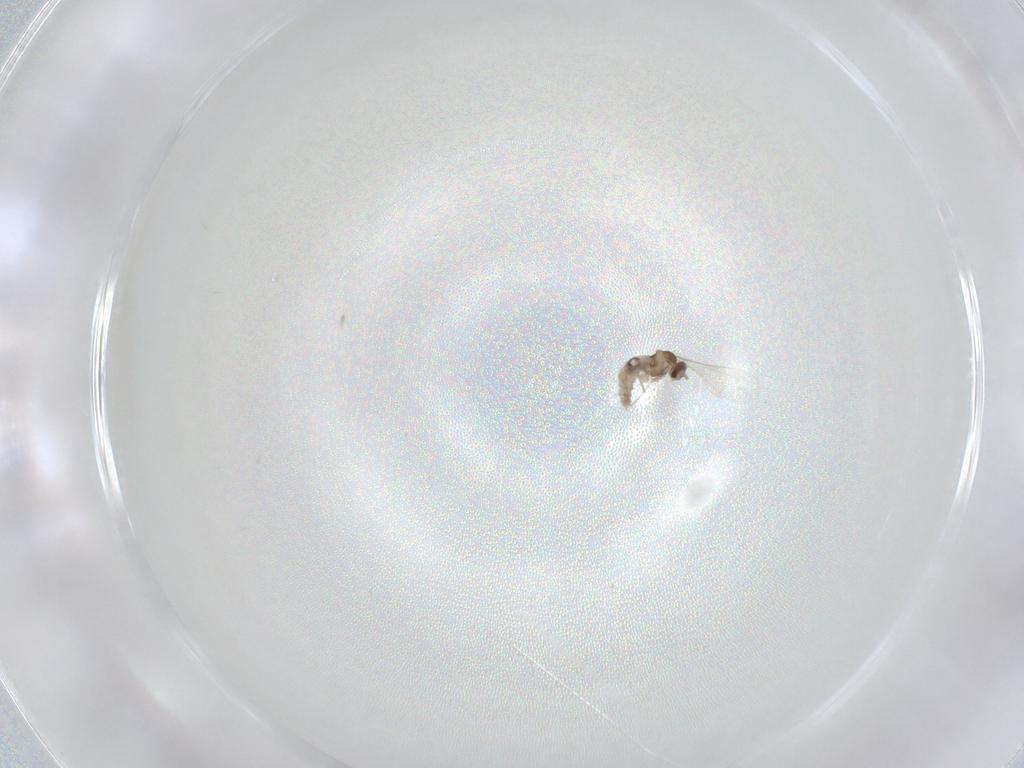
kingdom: Animalia
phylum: Arthropoda
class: Insecta
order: Diptera
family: Cecidomyiidae
